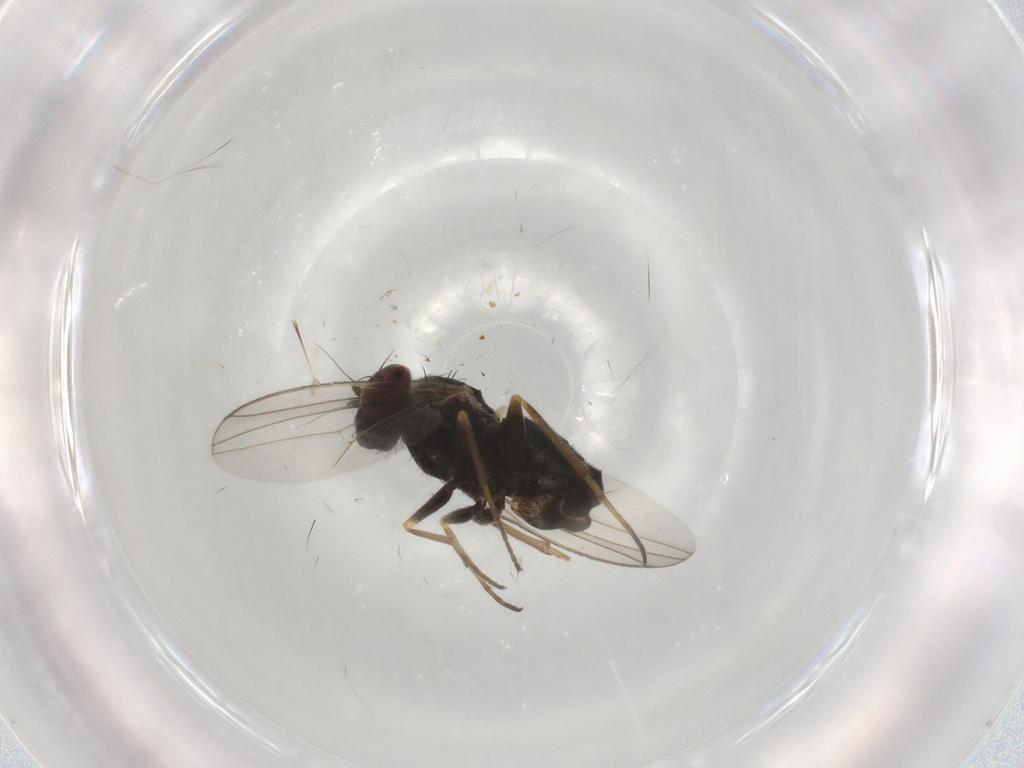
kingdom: Animalia
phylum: Arthropoda
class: Insecta
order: Diptera
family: Dolichopodidae
